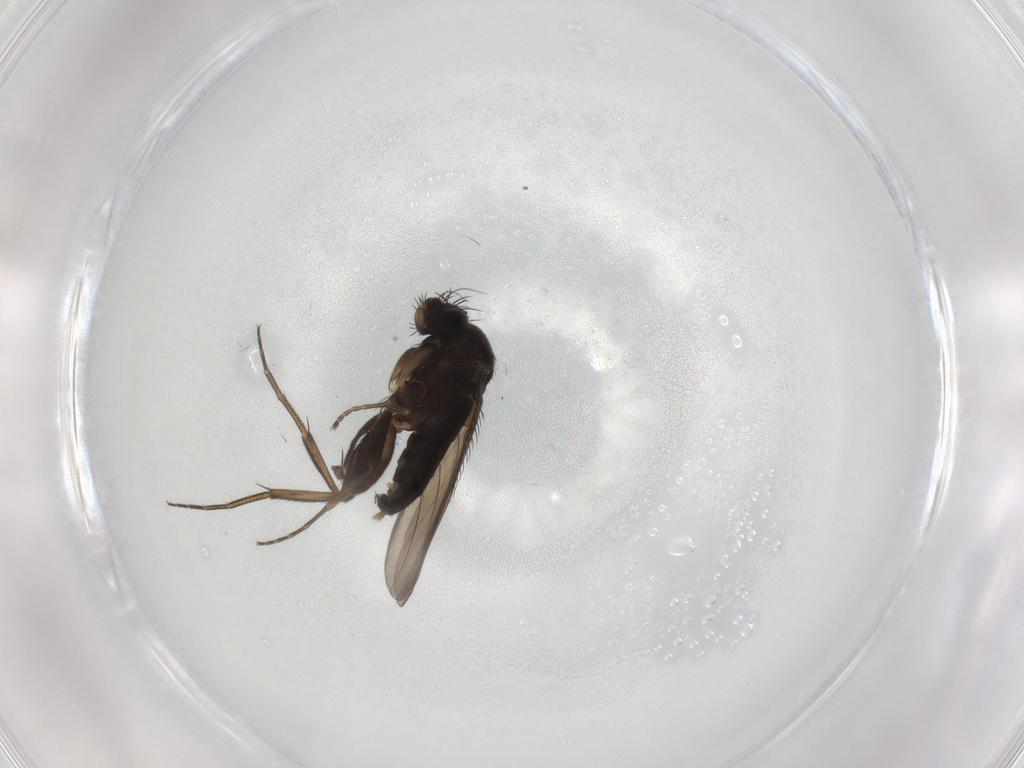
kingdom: Animalia
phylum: Arthropoda
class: Insecta
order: Diptera
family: Phoridae
